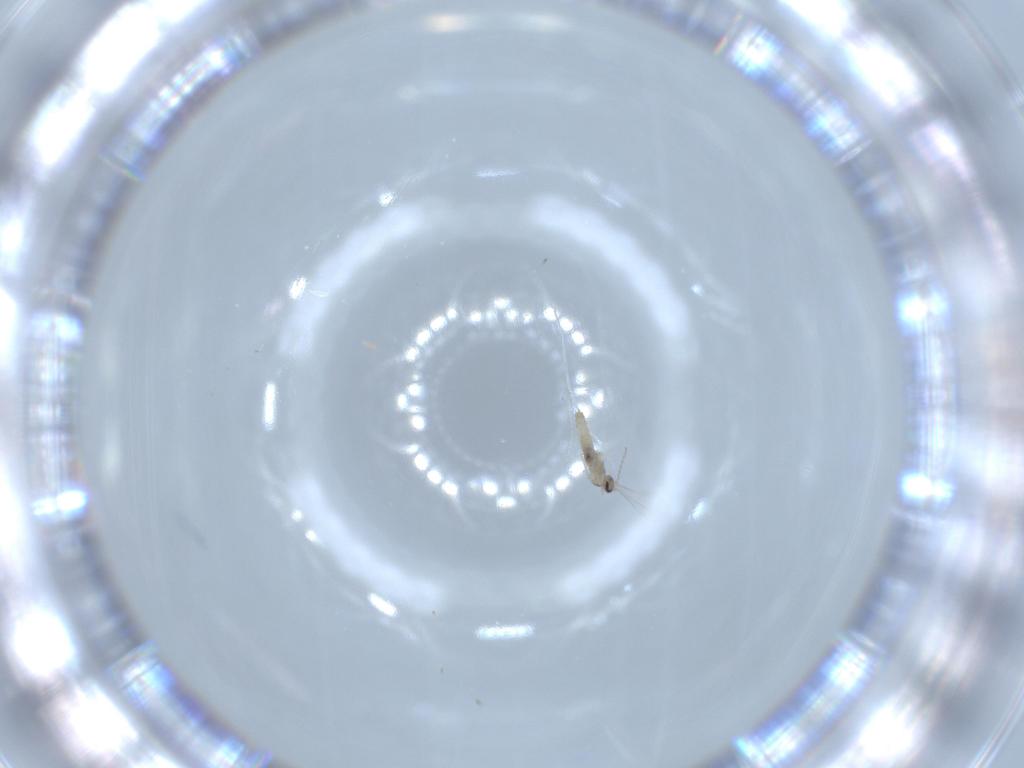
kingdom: Animalia
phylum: Arthropoda
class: Insecta
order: Diptera
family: Cecidomyiidae
